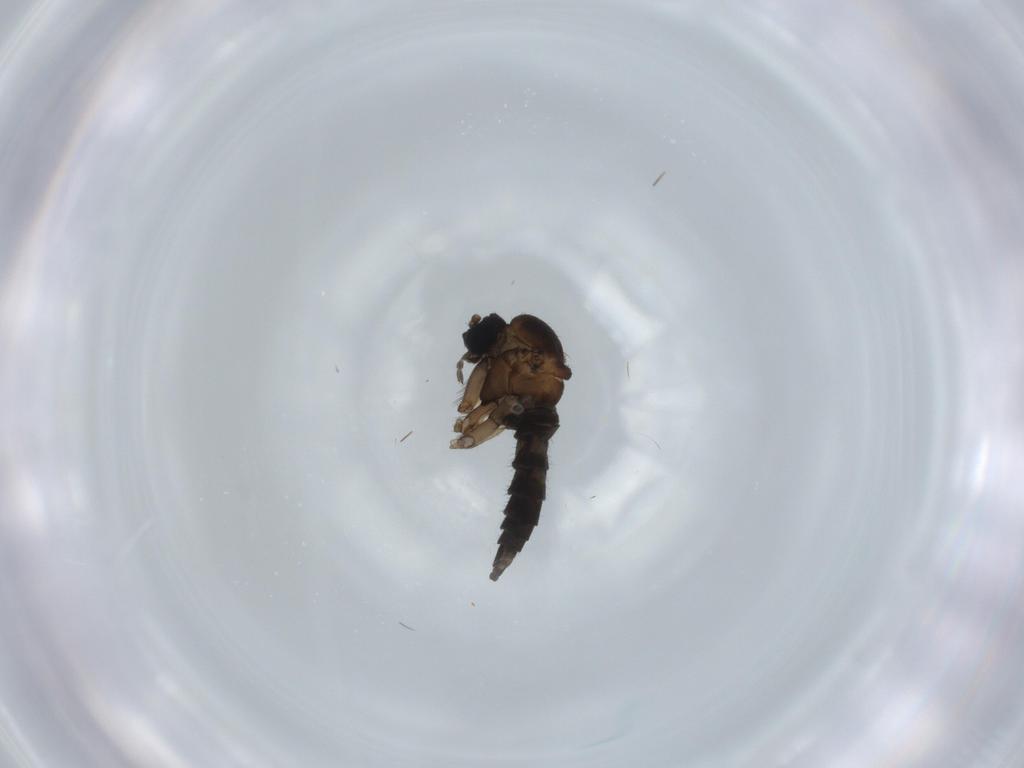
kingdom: Animalia
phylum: Arthropoda
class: Insecta
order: Diptera
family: Sciaridae
